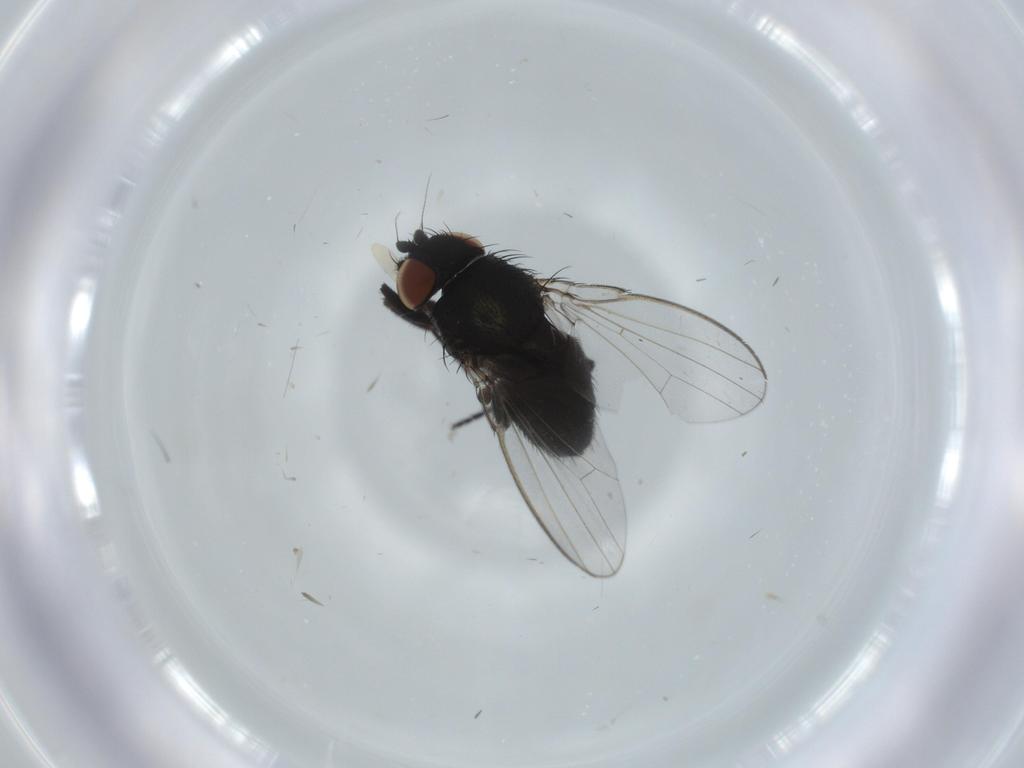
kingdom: Animalia
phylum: Arthropoda
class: Insecta
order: Diptera
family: Milichiidae
